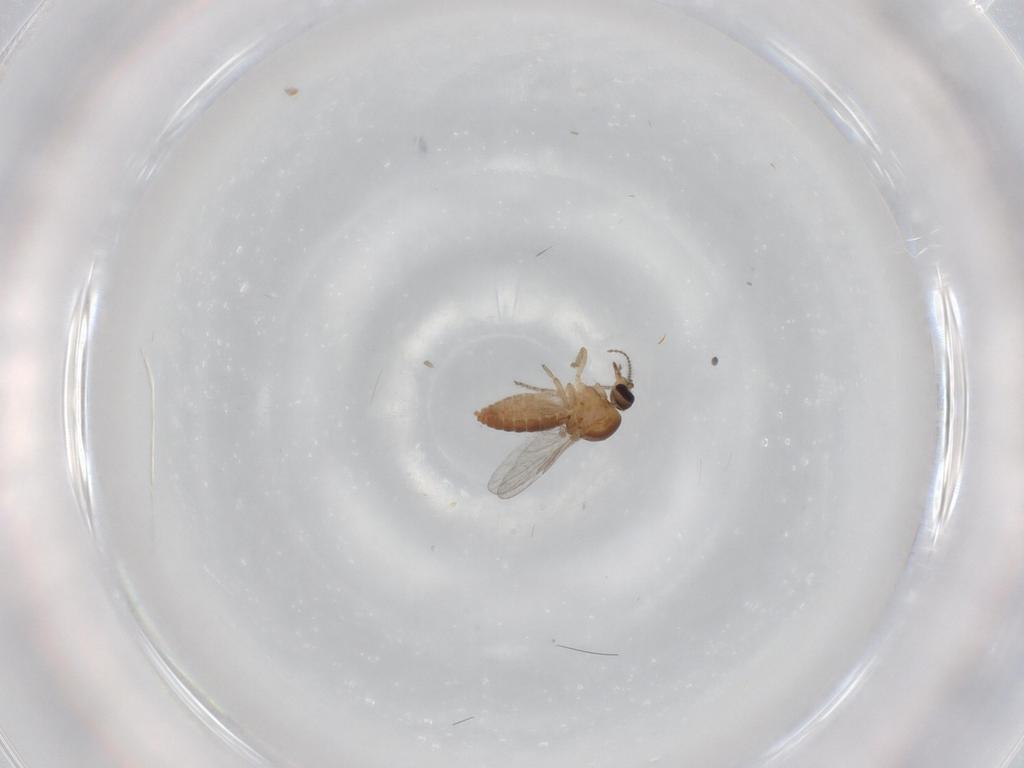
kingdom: Animalia
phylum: Arthropoda
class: Insecta
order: Diptera
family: Ceratopogonidae
